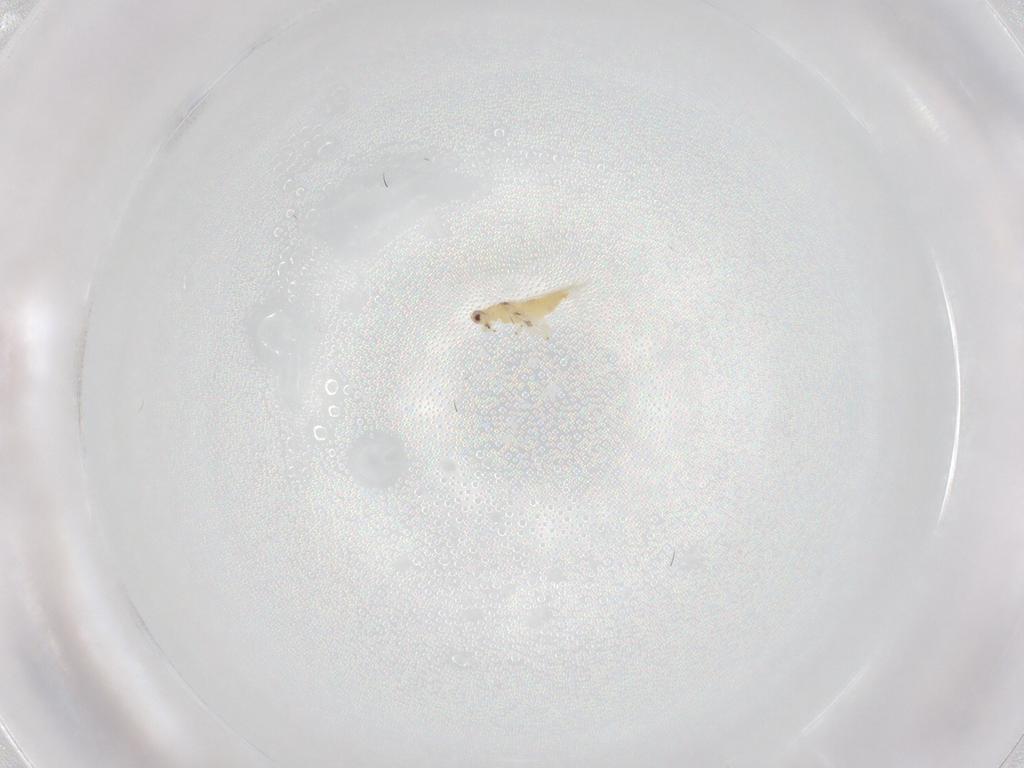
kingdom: Animalia
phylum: Arthropoda
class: Insecta
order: Thysanoptera
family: Thripidae
